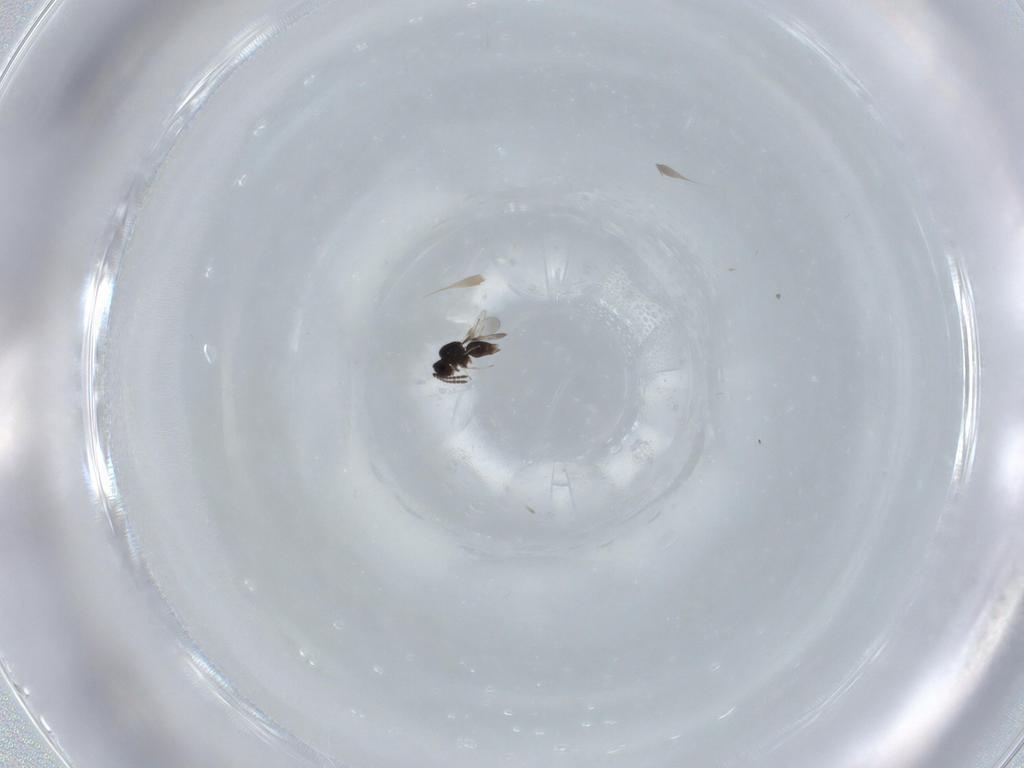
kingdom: Animalia
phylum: Arthropoda
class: Insecta
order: Hymenoptera
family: Ceraphronidae
